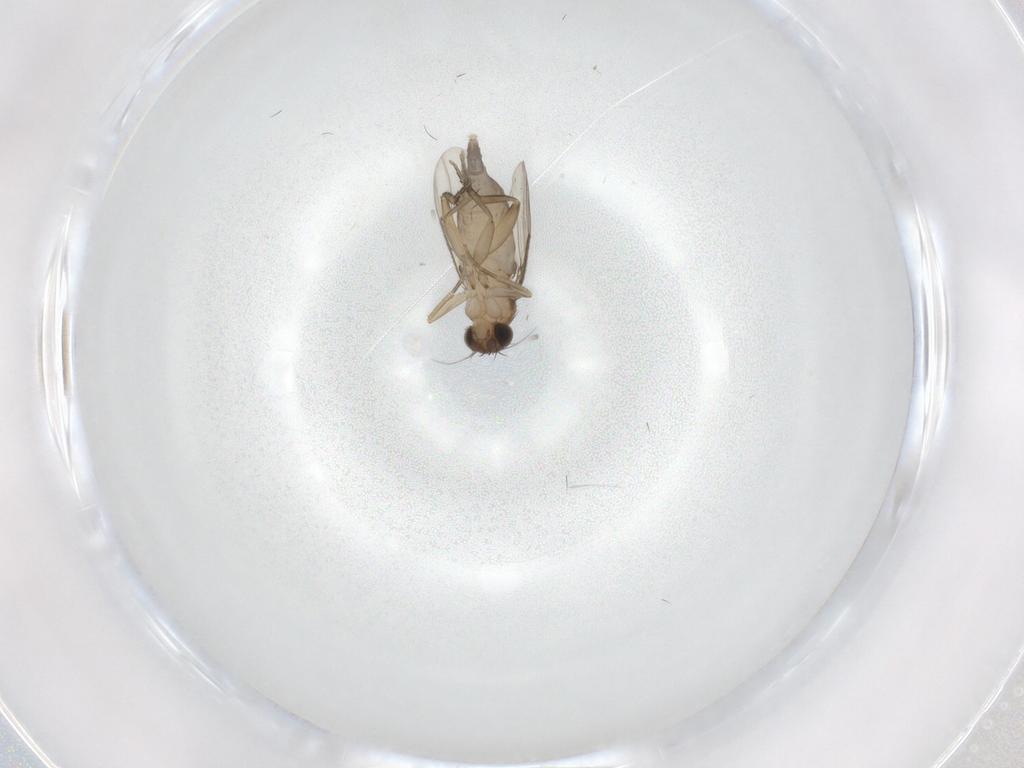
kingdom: Animalia
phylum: Arthropoda
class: Insecta
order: Diptera
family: Phoridae
